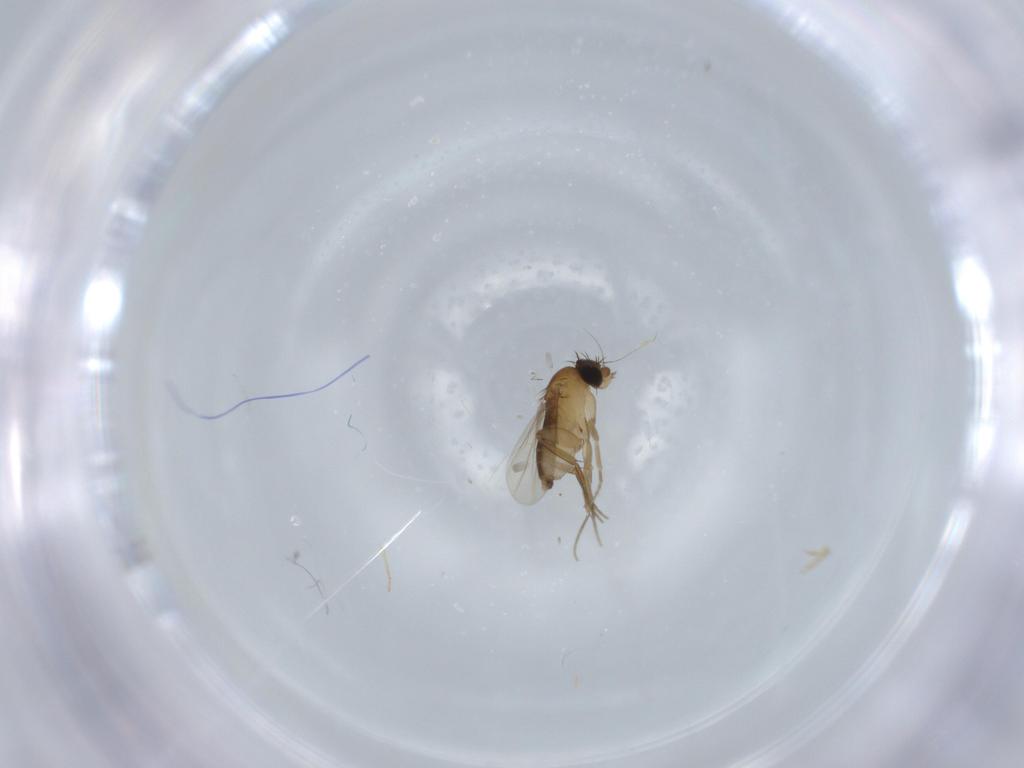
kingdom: Animalia
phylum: Arthropoda
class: Insecta
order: Diptera
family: Phoridae
